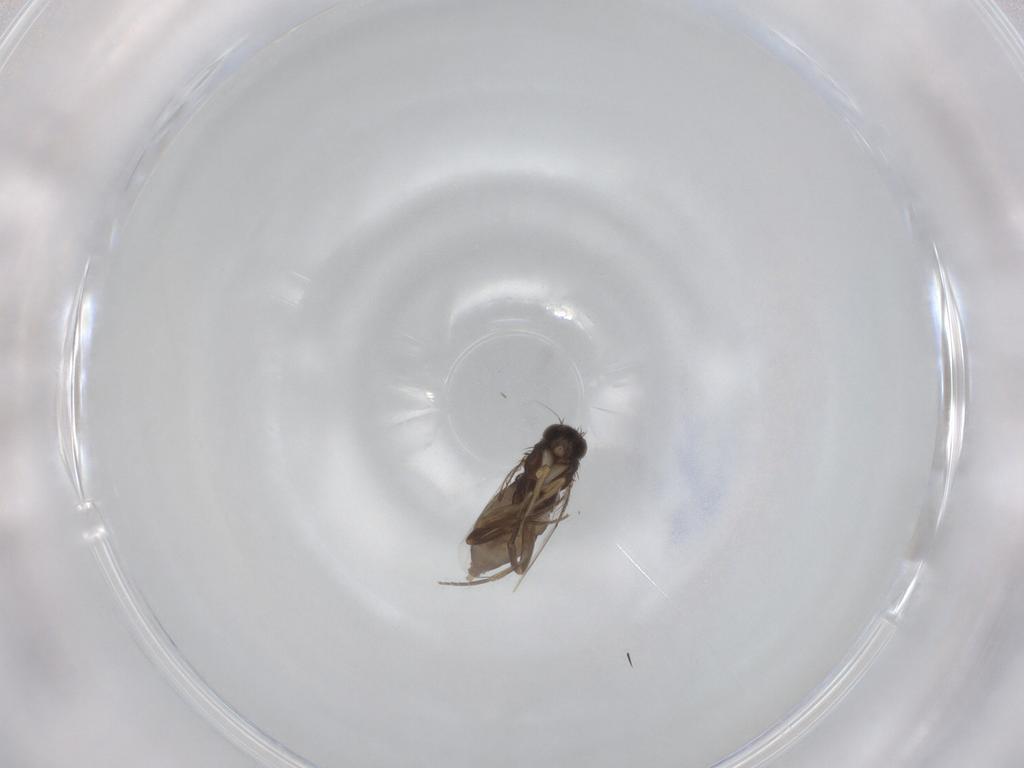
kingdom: Animalia
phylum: Arthropoda
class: Insecta
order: Diptera
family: Phoridae
